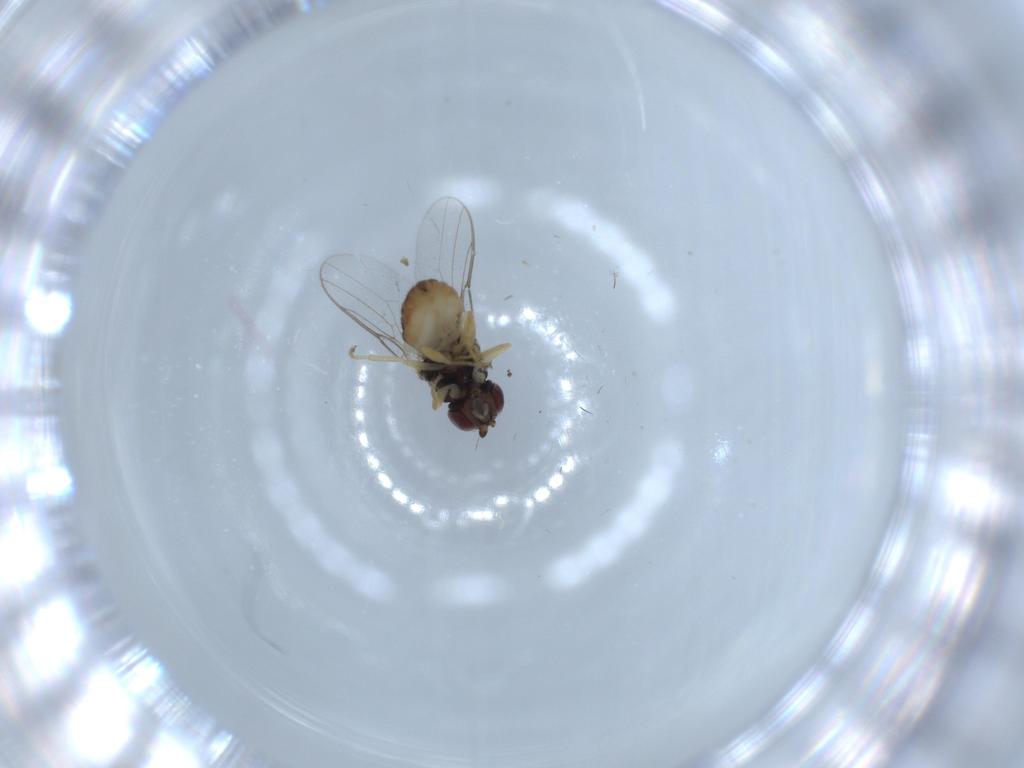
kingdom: Animalia
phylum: Arthropoda
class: Insecta
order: Diptera
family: Chloropidae
